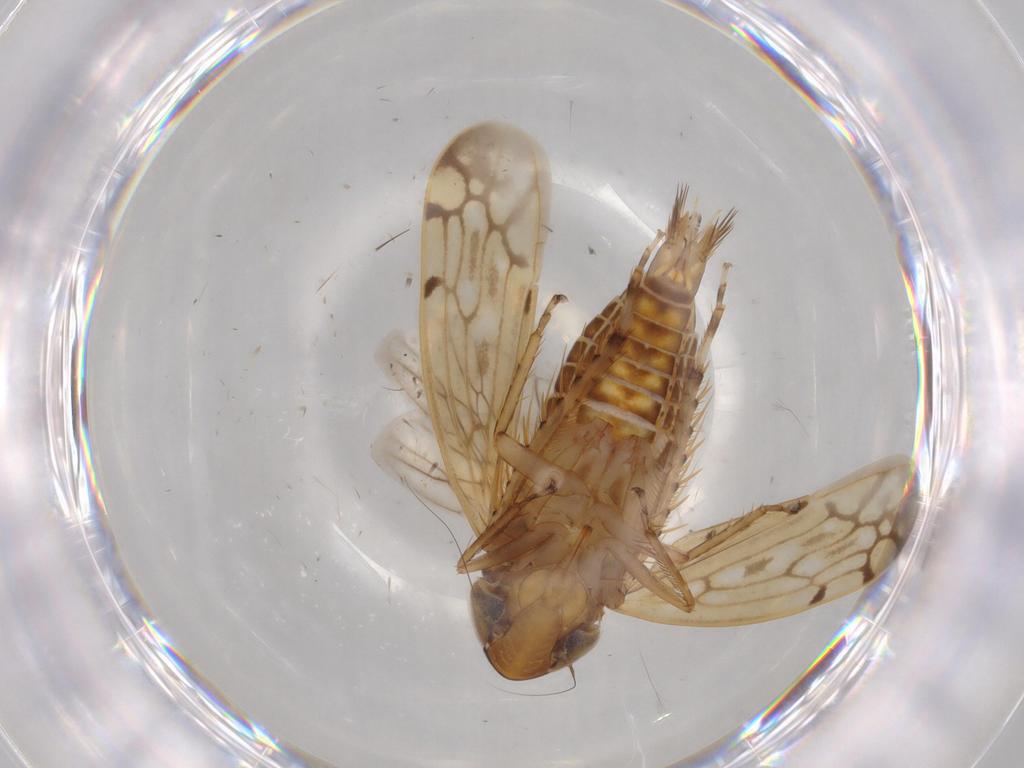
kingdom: Animalia
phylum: Arthropoda
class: Insecta
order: Hemiptera
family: Cicadellidae
